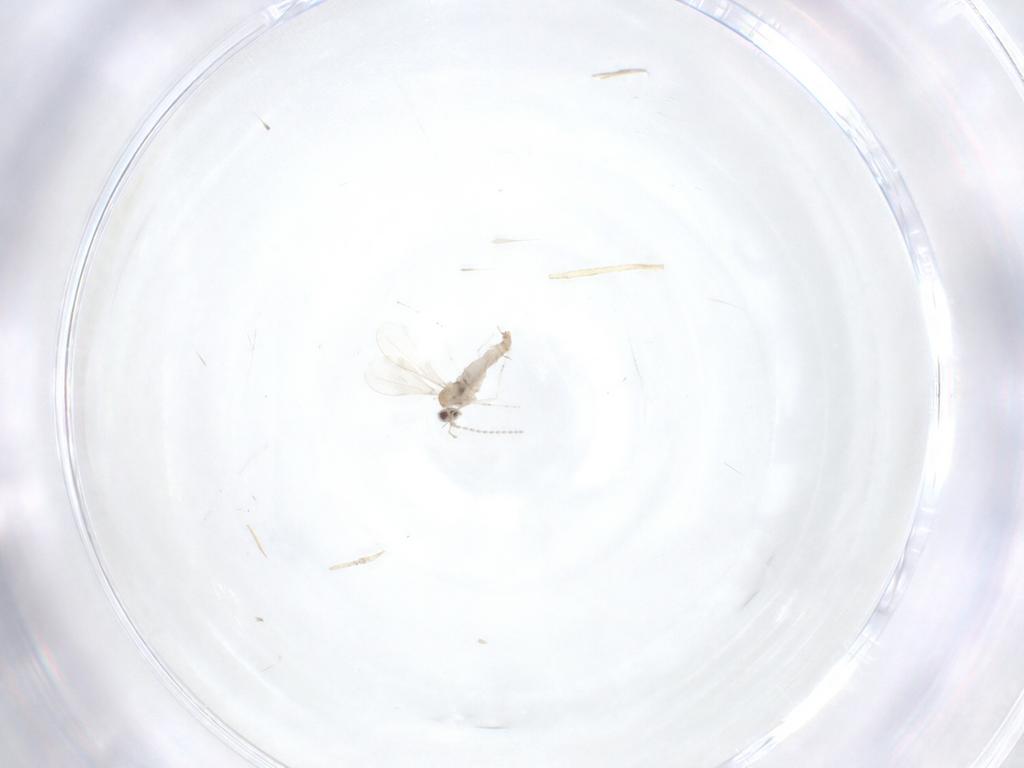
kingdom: Animalia
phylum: Arthropoda
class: Insecta
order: Diptera
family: Cecidomyiidae
